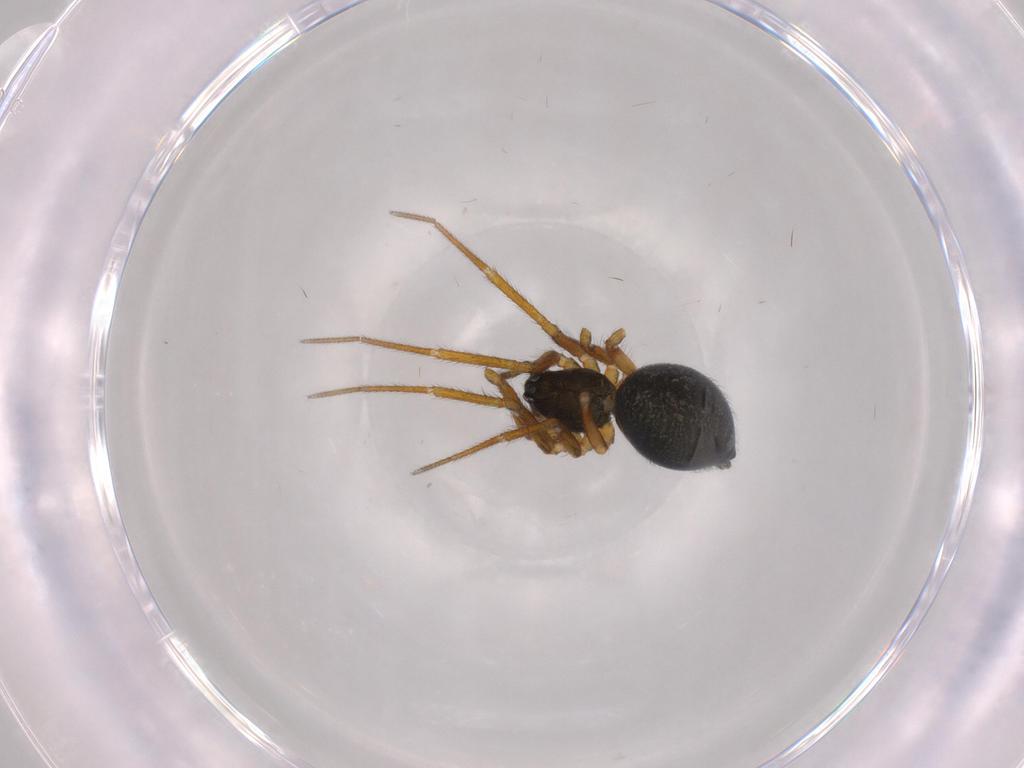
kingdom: Animalia
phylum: Arthropoda
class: Arachnida
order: Araneae
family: Linyphiidae
